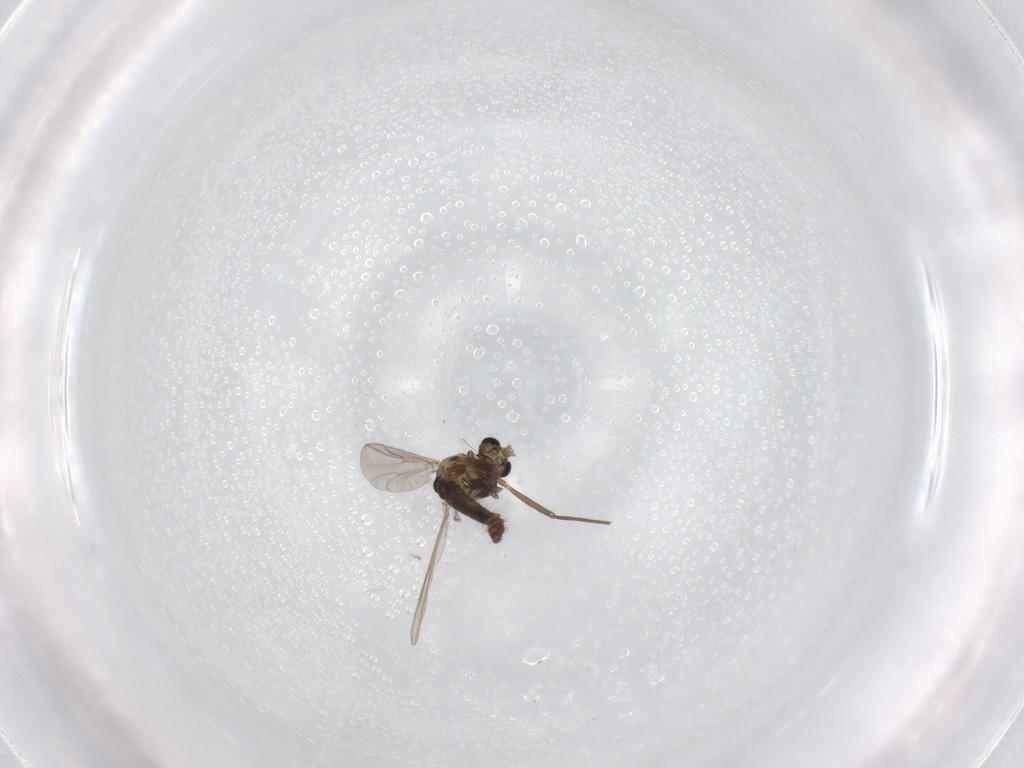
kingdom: Animalia
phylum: Arthropoda
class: Insecta
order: Diptera
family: Chironomidae
